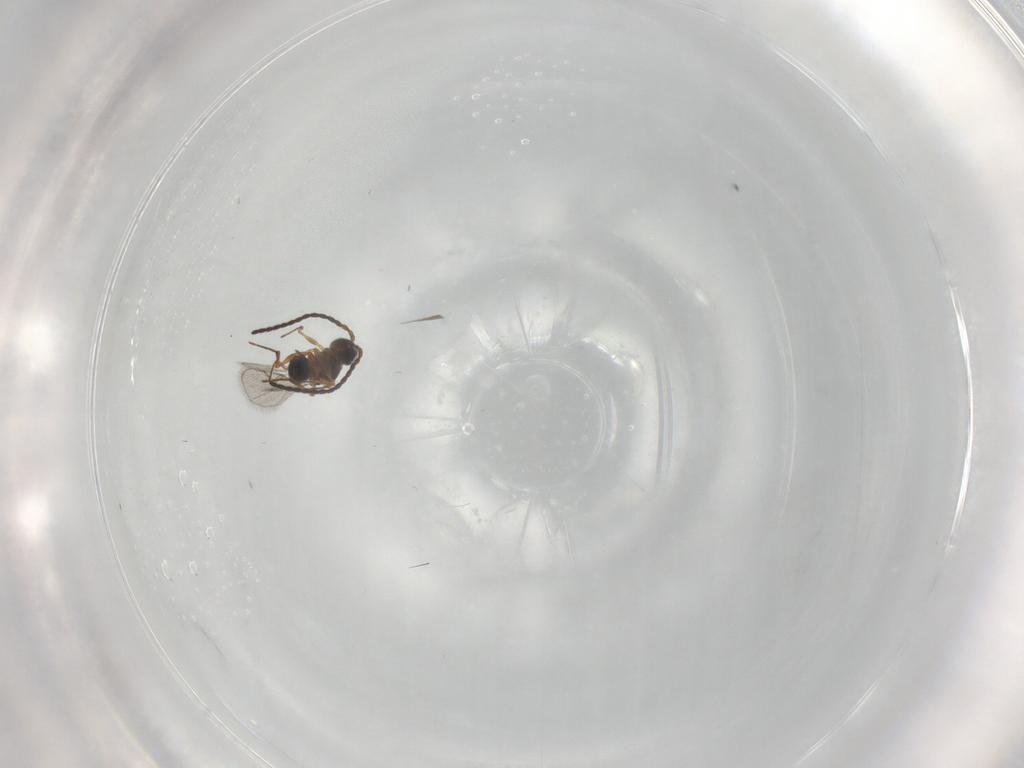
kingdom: Animalia
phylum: Arthropoda
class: Insecta
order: Hymenoptera
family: Figitidae
